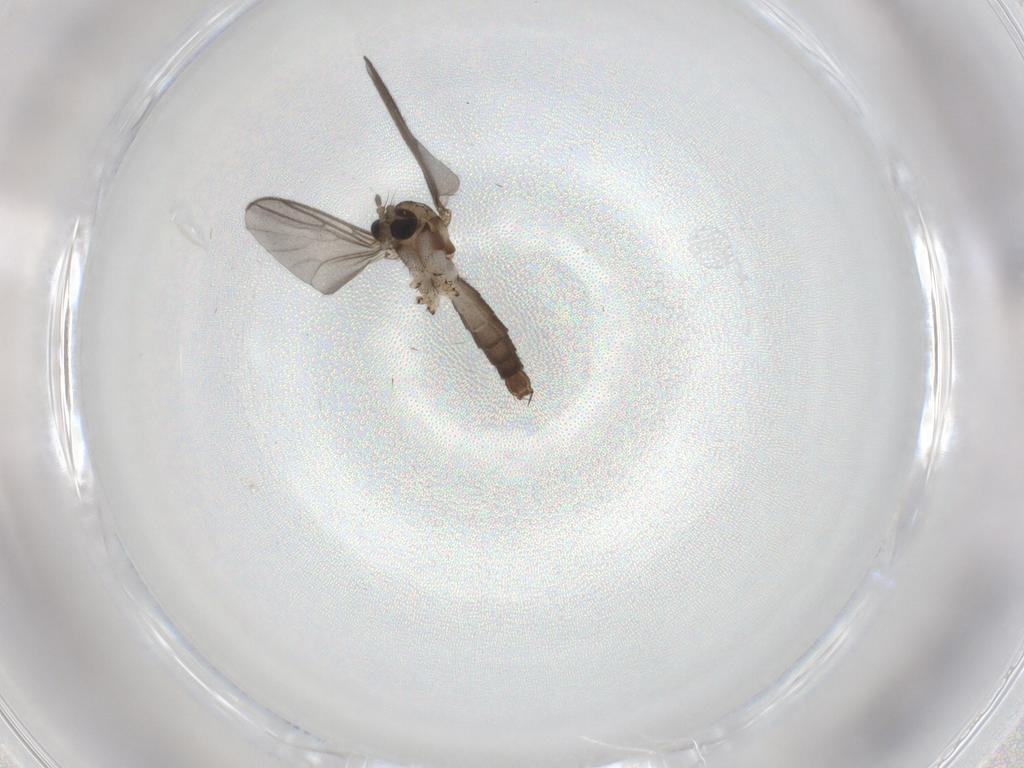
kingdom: Animalia
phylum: Arthropoda
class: Insecta
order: Diptera
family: Mycetophilidae
